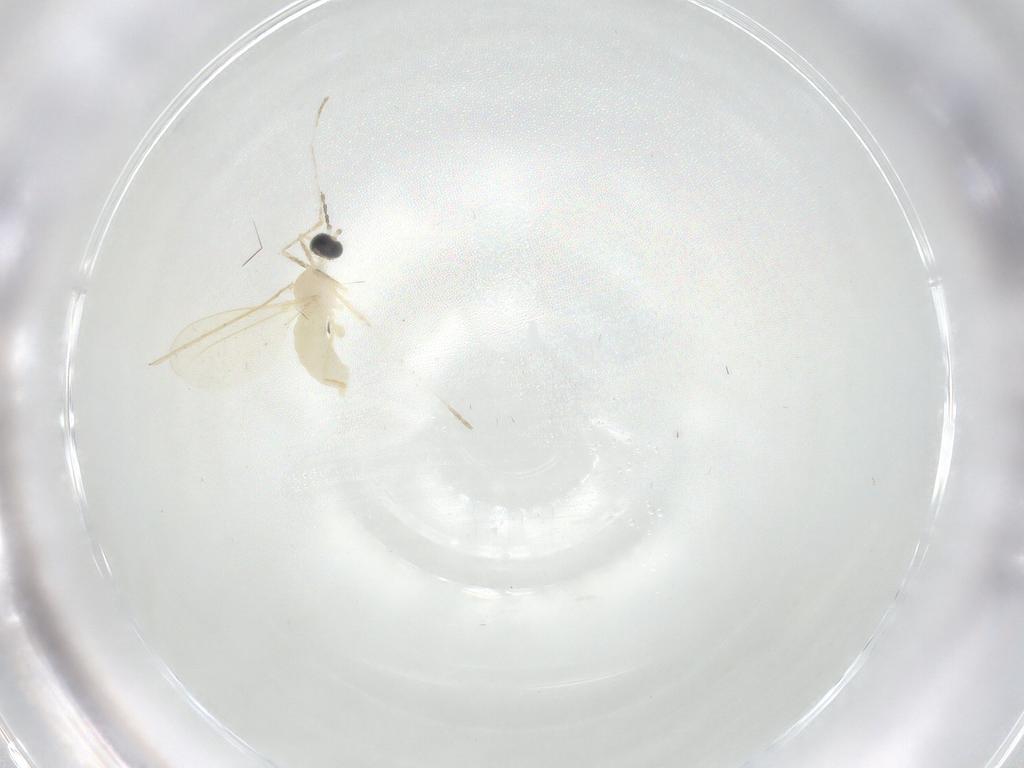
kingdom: Animalia
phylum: Arthropoda
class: Insecta
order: Diptera
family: Cecidomyiidae
